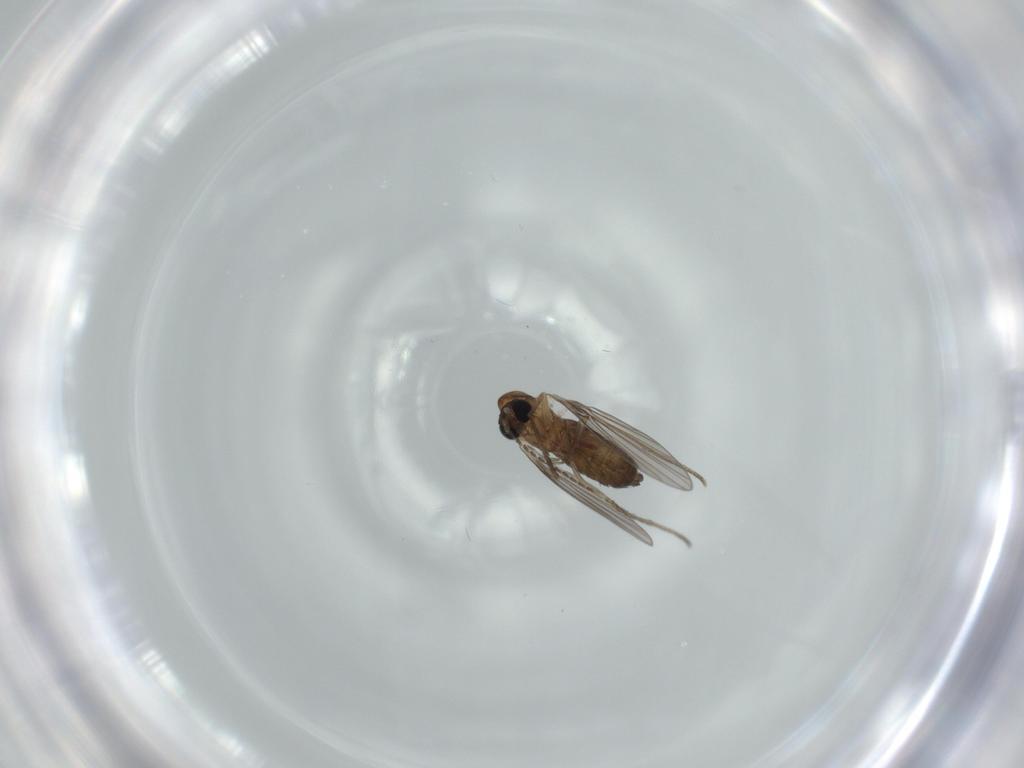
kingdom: Animalia
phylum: Arthropoda
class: Insecta
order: Diptera
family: Psychodidae
